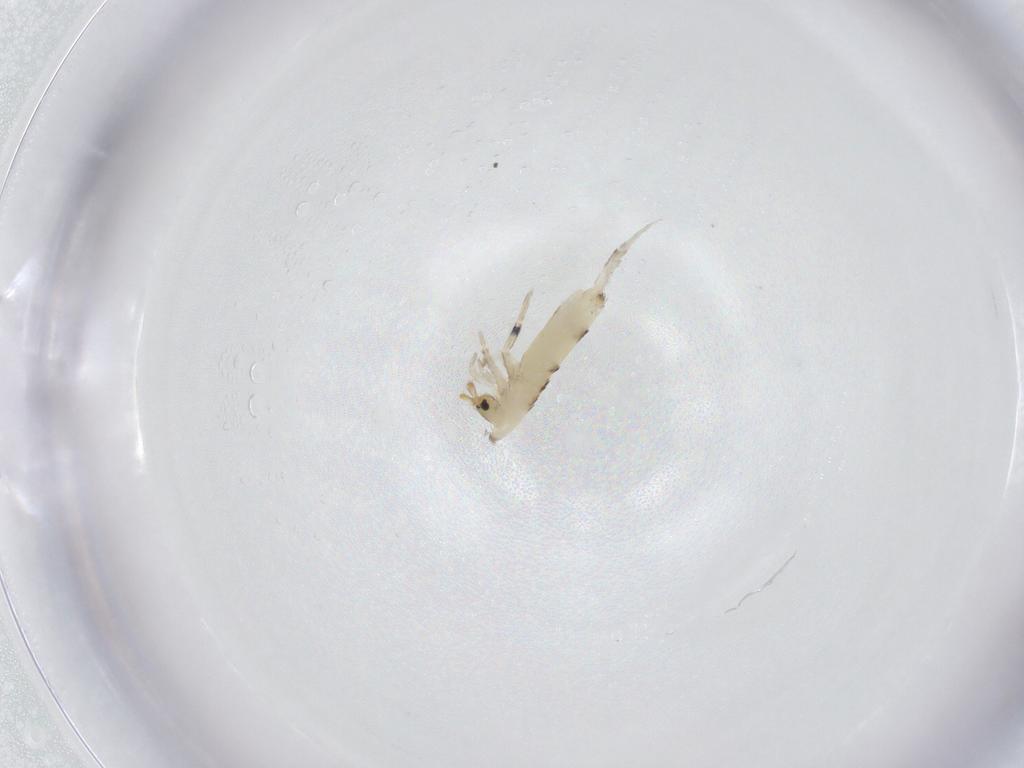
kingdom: Animalia
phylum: Arthropoda
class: Collembola
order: Entomobryomorpha
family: Entomobryidae
